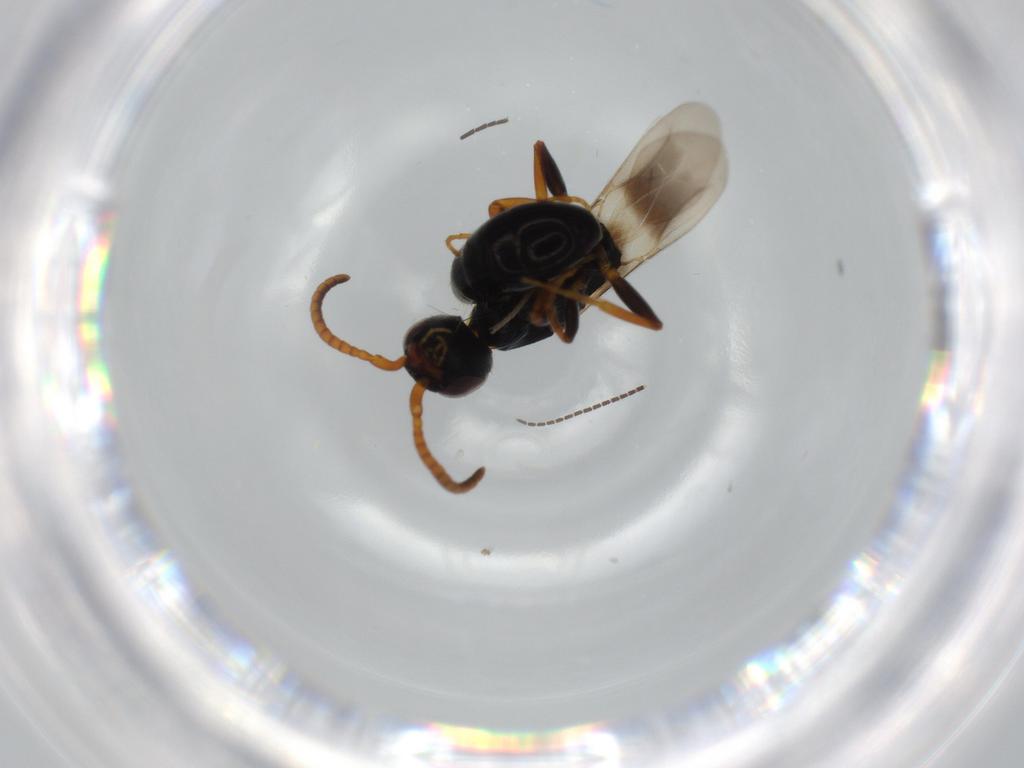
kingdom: Animalia
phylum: Arthropoda
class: Insecta
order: Hymenoptera
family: Bethylidae
